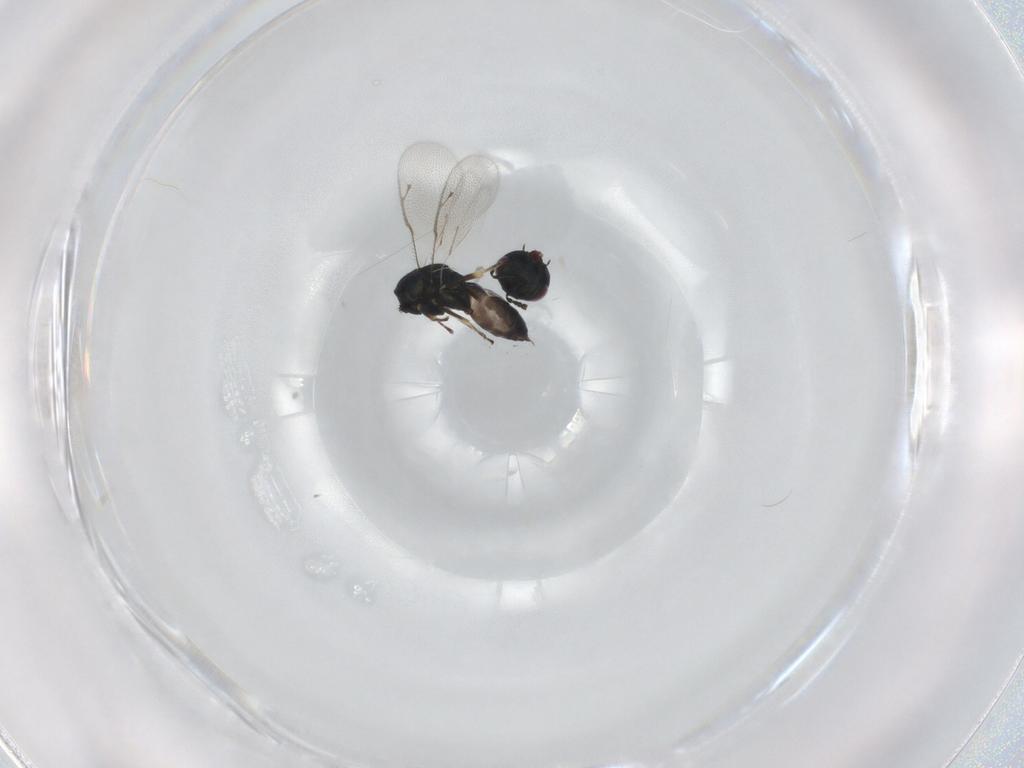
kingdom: Animalia
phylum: Arthropoda
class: Insecta
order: Hymenoptera
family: Pteromalidae
